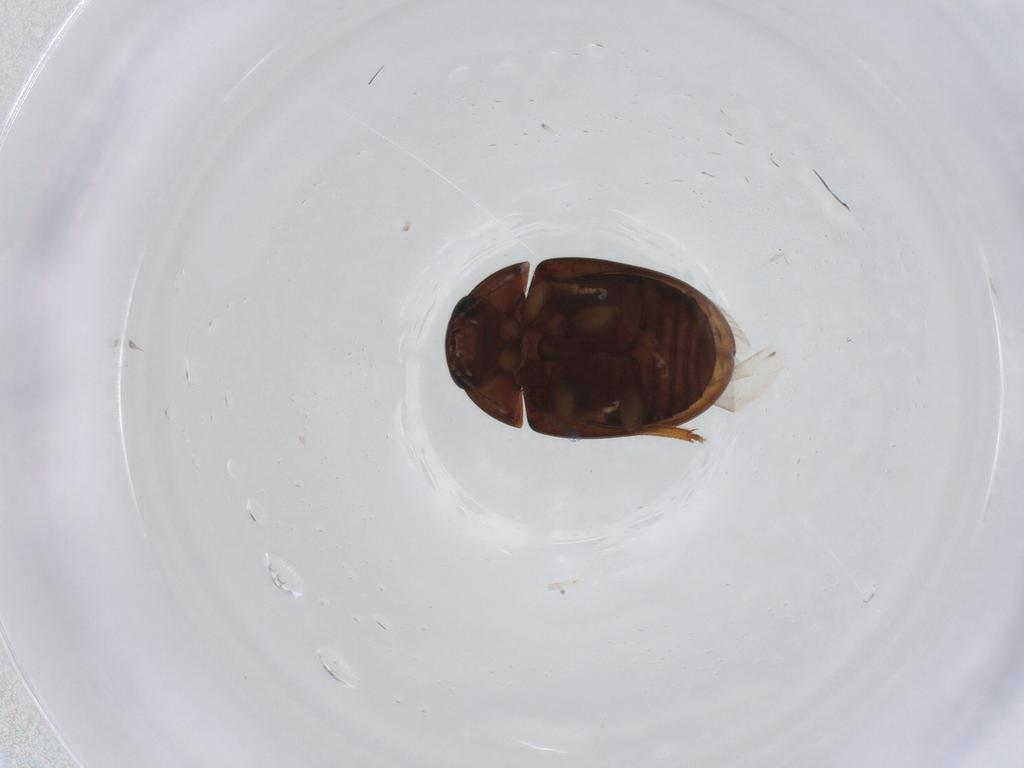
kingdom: Animalia
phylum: Arthropoda
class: Insecta
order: Coleoptera
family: Phalacridae
